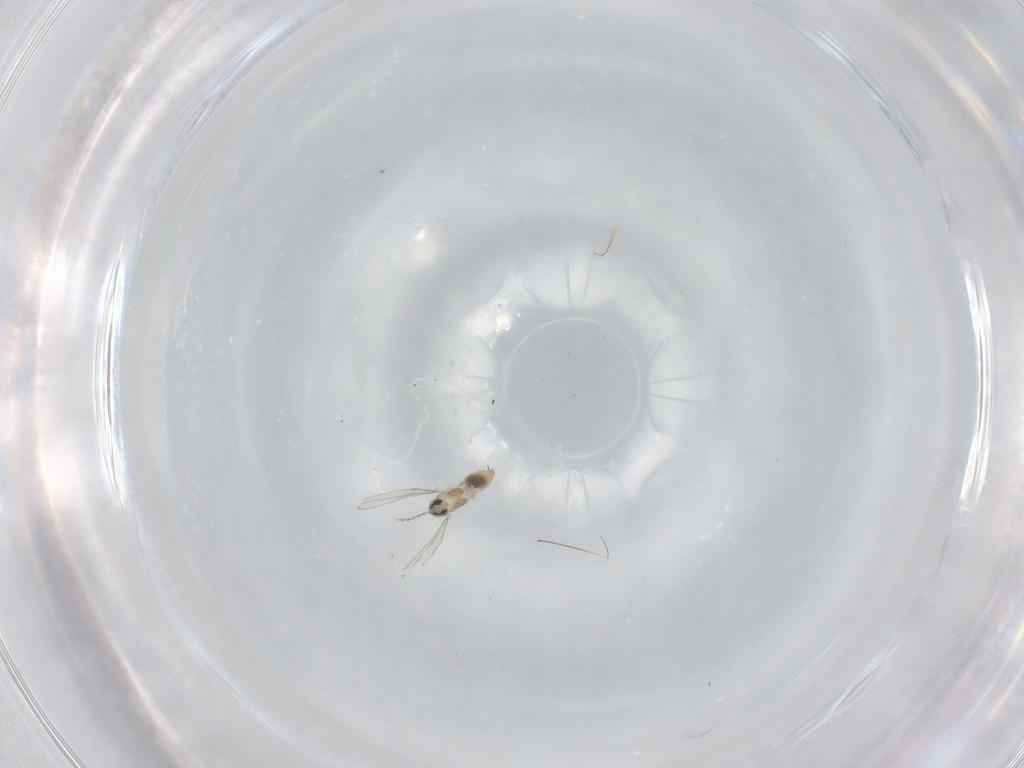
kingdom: Animalia
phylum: Arthropoda
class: Insecta
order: Diptera
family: Cecidomyiidae
